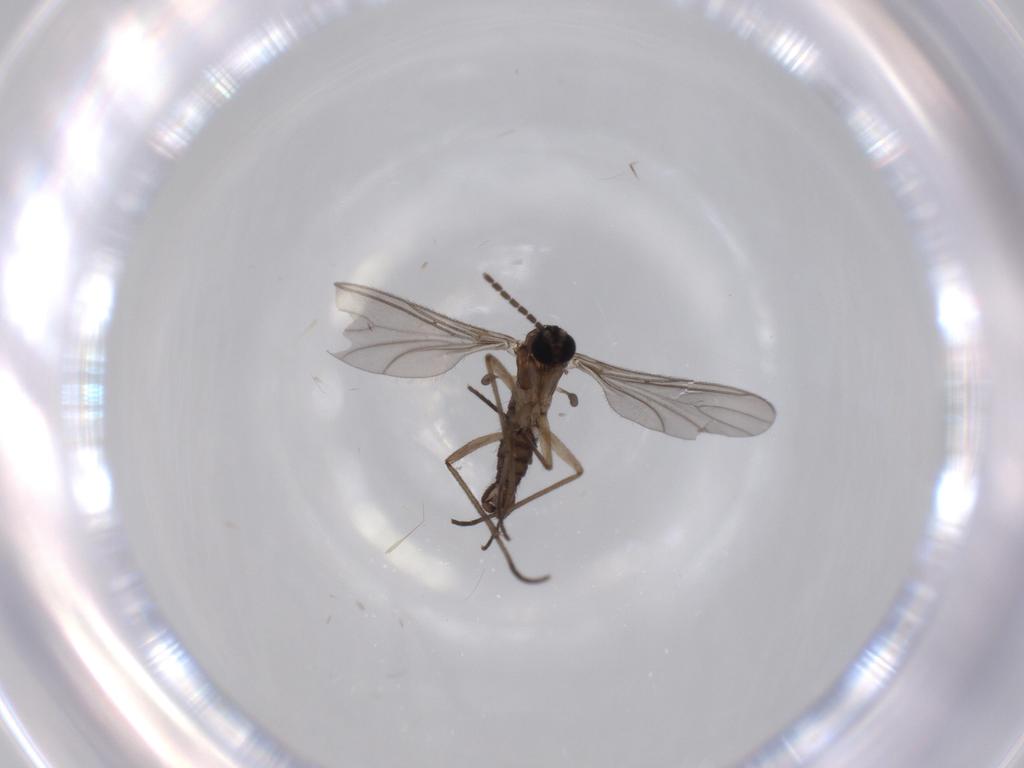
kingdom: Animalia
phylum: Arthropoda
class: Insecta
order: Diptera
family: Sciaridae
